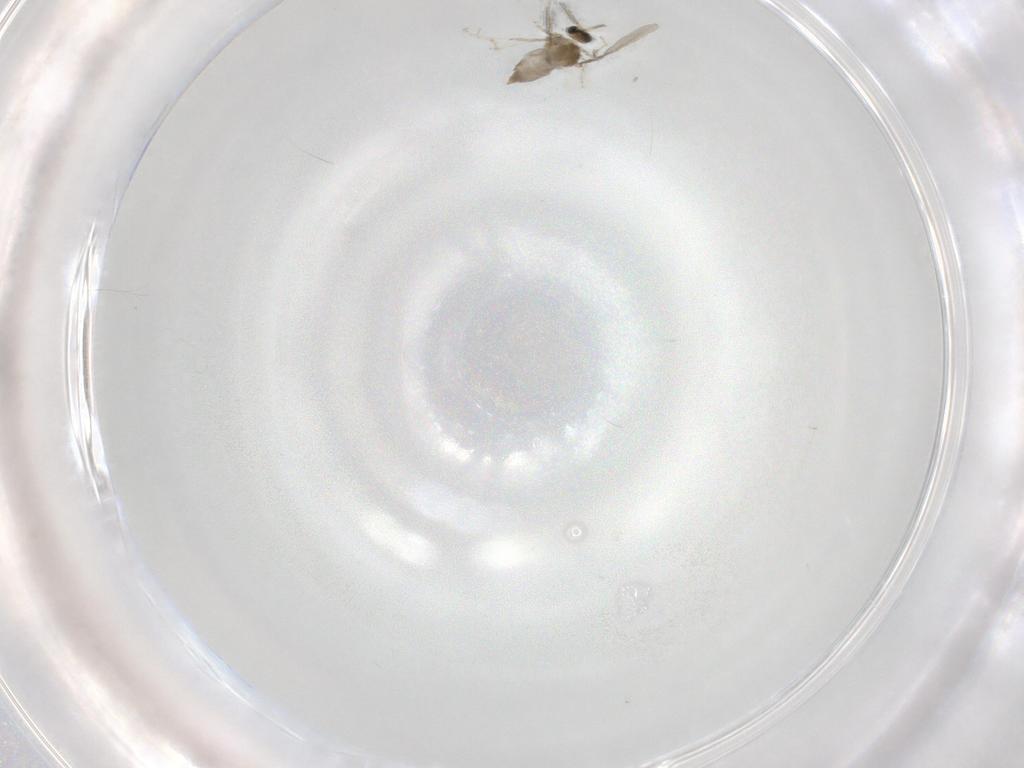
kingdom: Animalia
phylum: Arthropoda
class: Insecta
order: Diptera
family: Cecidomyiidae
